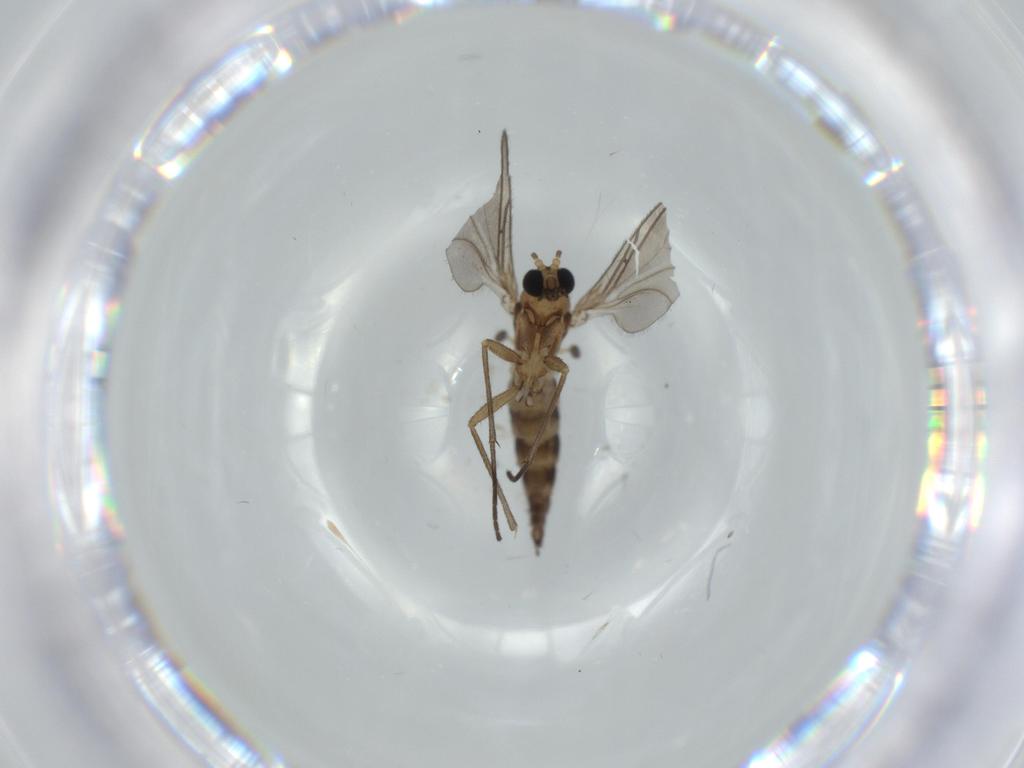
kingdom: Animalia
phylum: Arthropoda
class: Insecta
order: Diptera
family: Sciaridae
